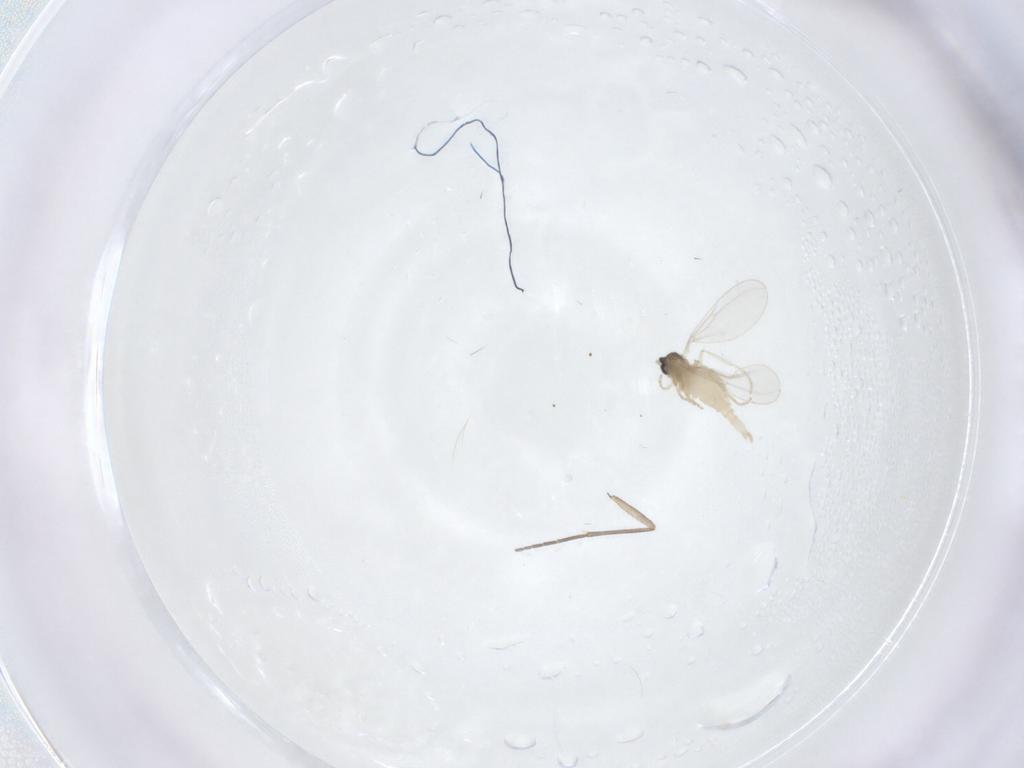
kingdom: Animalia
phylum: Arthropoda
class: Insecta
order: Diptera
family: Cecidomyiidae
